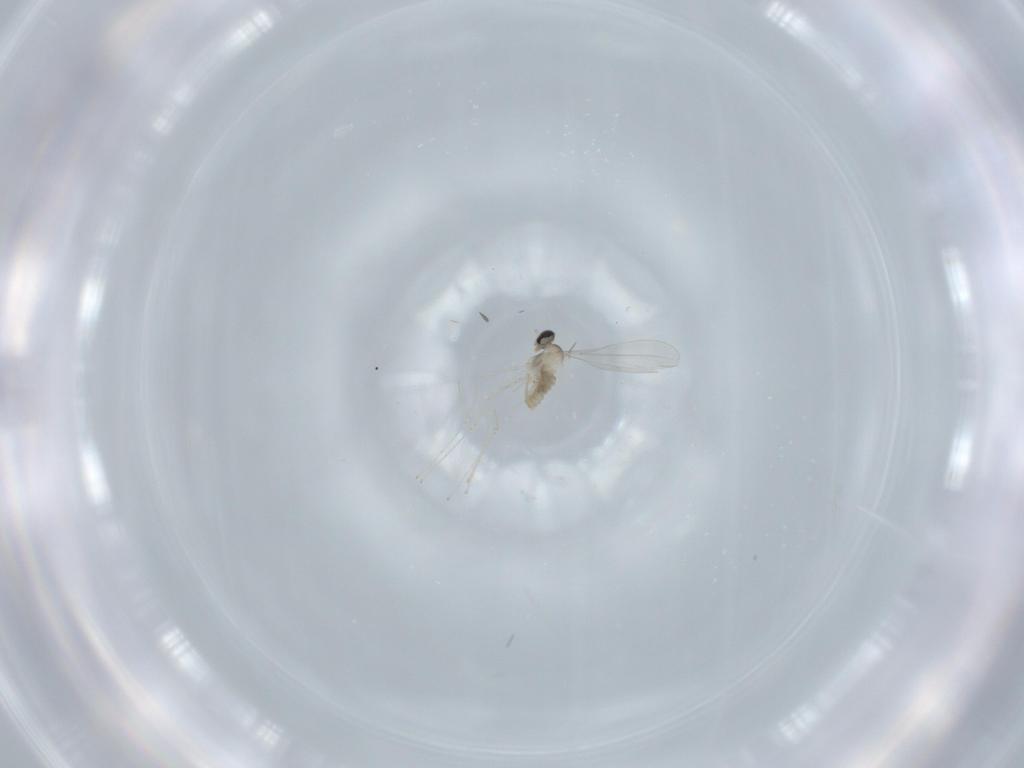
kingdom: Animalia
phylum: Arthropoda
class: Insecta
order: Diptera
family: Cecidomyiidae
